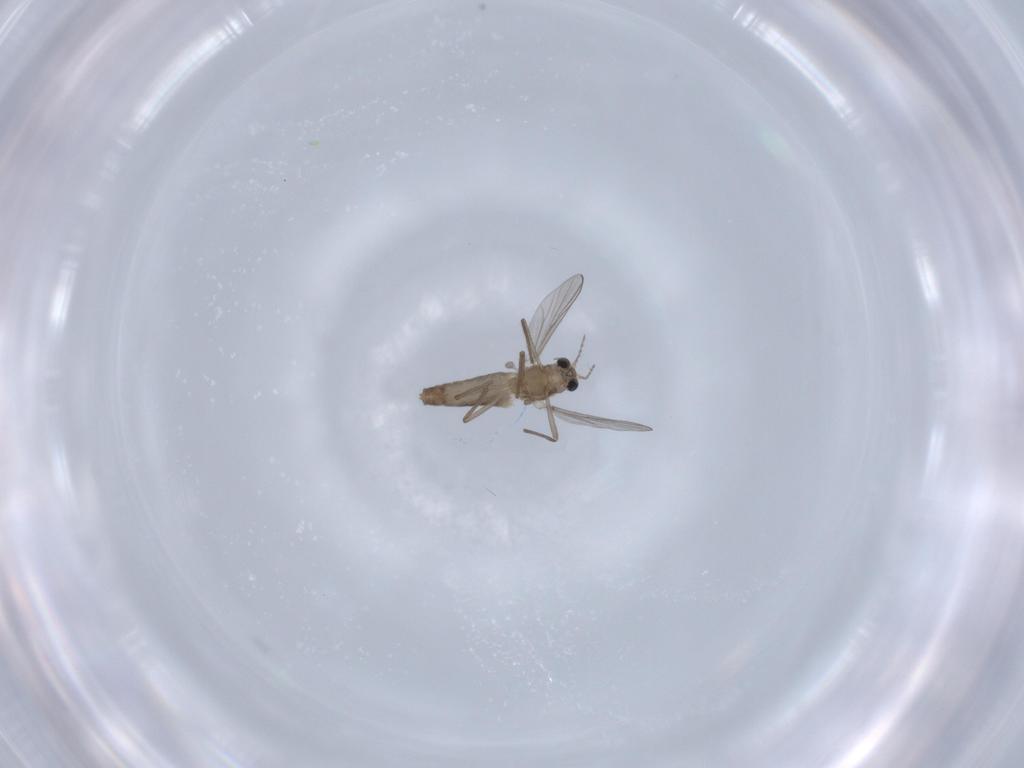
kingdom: Animalia
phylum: Arthropoda
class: Insecta
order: Diptera
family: Chironomidae
